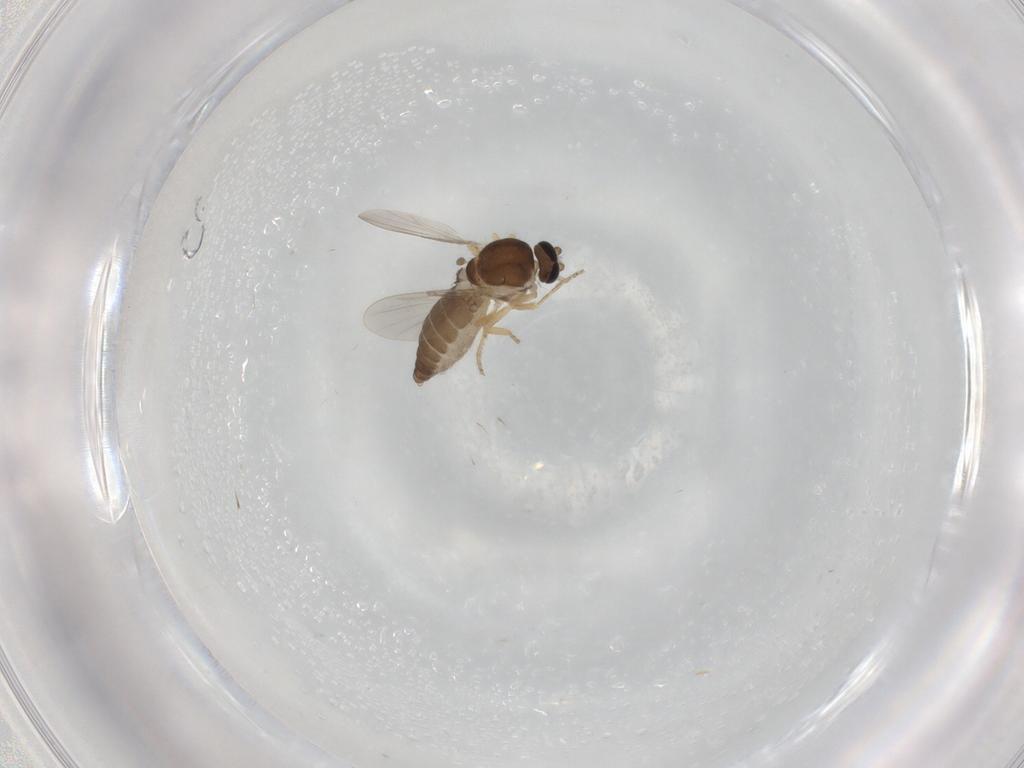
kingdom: Animalia
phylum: Arthropoda
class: Insecta
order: Diptera
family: Ceratopogonidae
